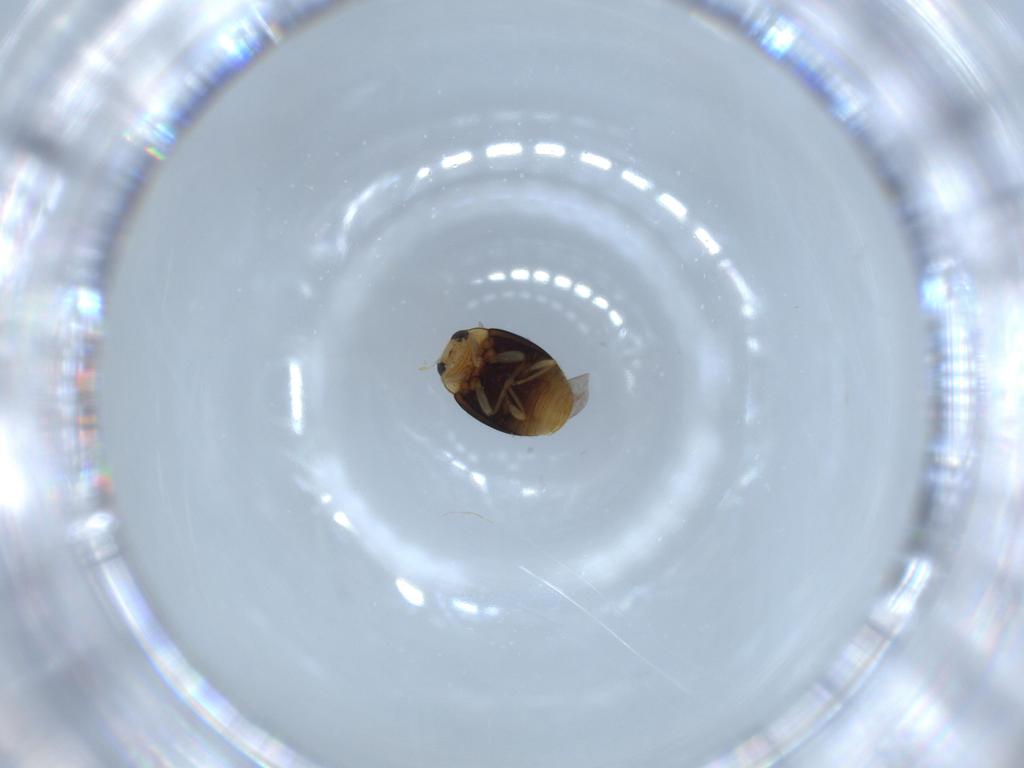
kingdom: Animalia
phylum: Arthropoda
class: Insecta
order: Coleoptera
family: Coccinellidae
